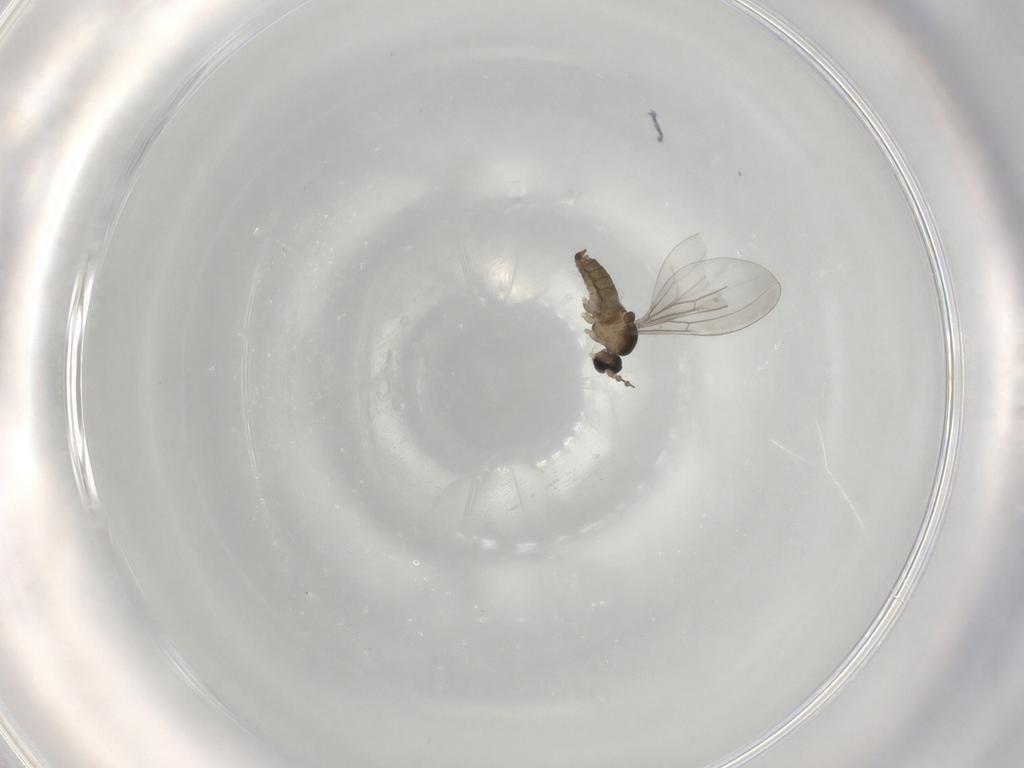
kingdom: Animalia
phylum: Arthropoda
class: Insecta
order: Diptera
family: Cecidomyiidae
